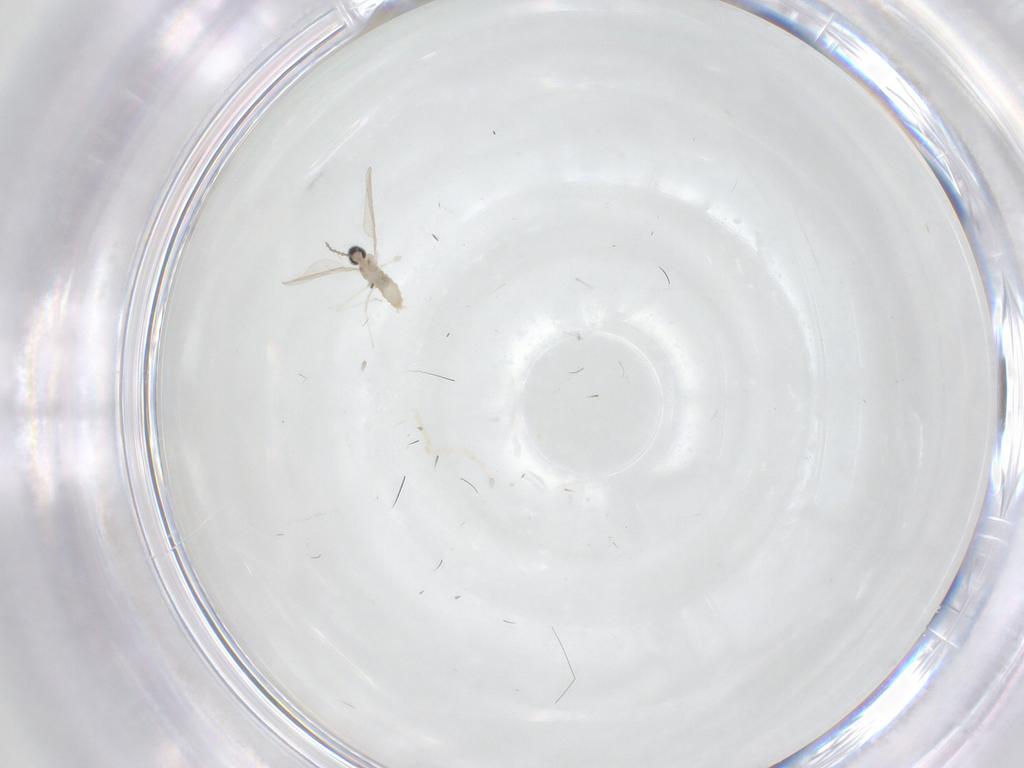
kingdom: Animalia
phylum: Arthropoda
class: Insecta
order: Diptera
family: Cecidomyiidae
